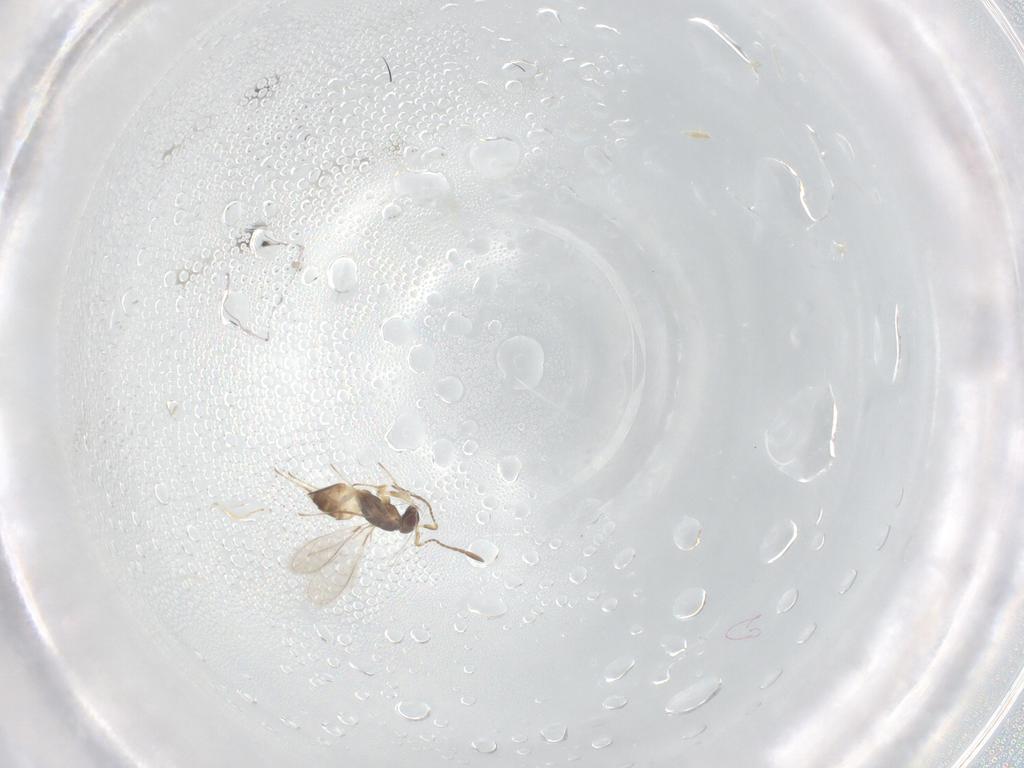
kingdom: Animalia
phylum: Arthropoda
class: Insecta
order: Hymenoptera
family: Mymaridae
